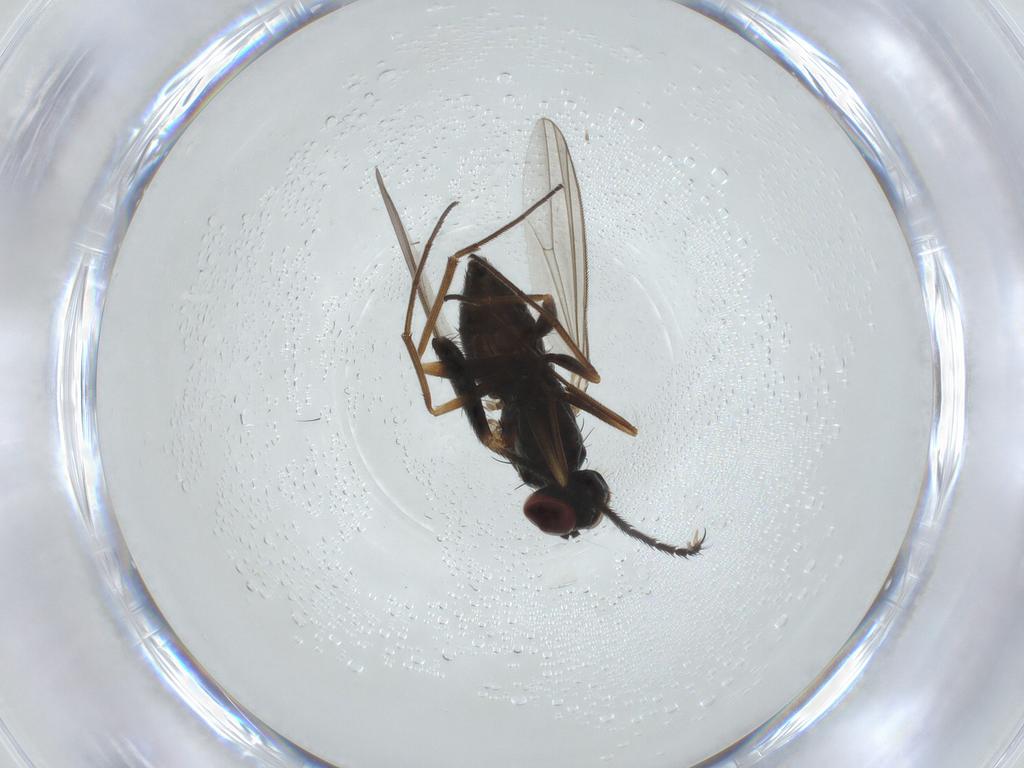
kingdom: Animalia
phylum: Arthropoda
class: Insecta
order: Diptera
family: Dolichopodidae
